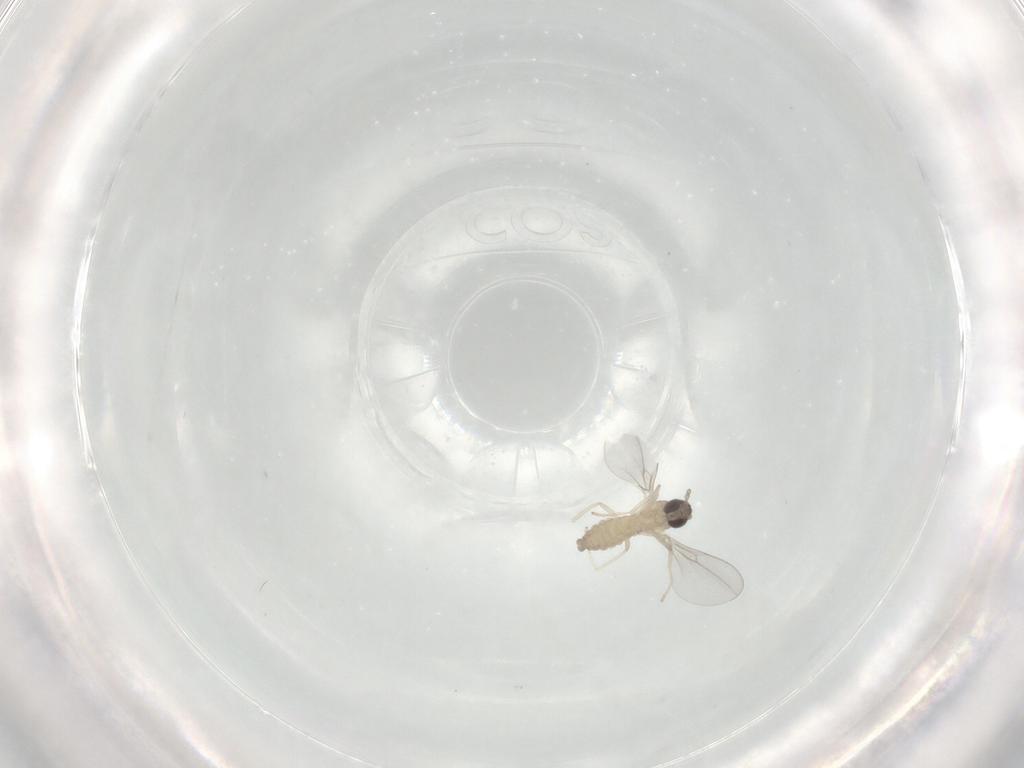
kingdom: Animalia
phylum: Arthropoda
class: Insecta
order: Diptera
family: Cecidomyiidae
